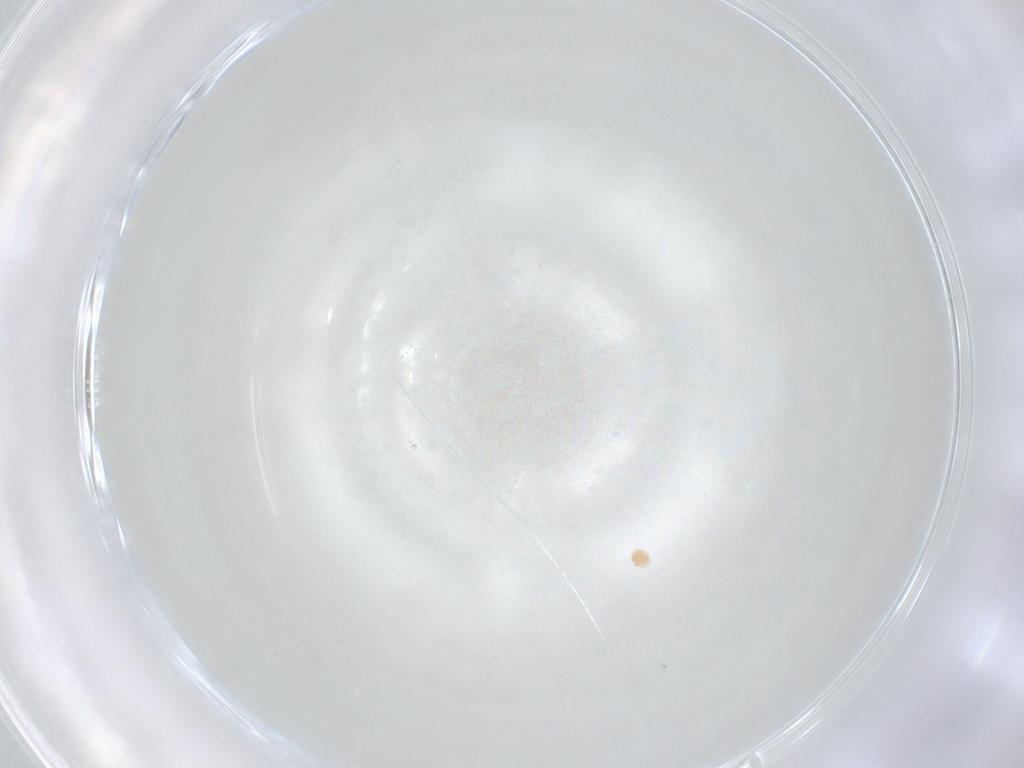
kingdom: Animalia
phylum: Arthropoda
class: Arachnida
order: Trombidiformes
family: Scutacaridae
